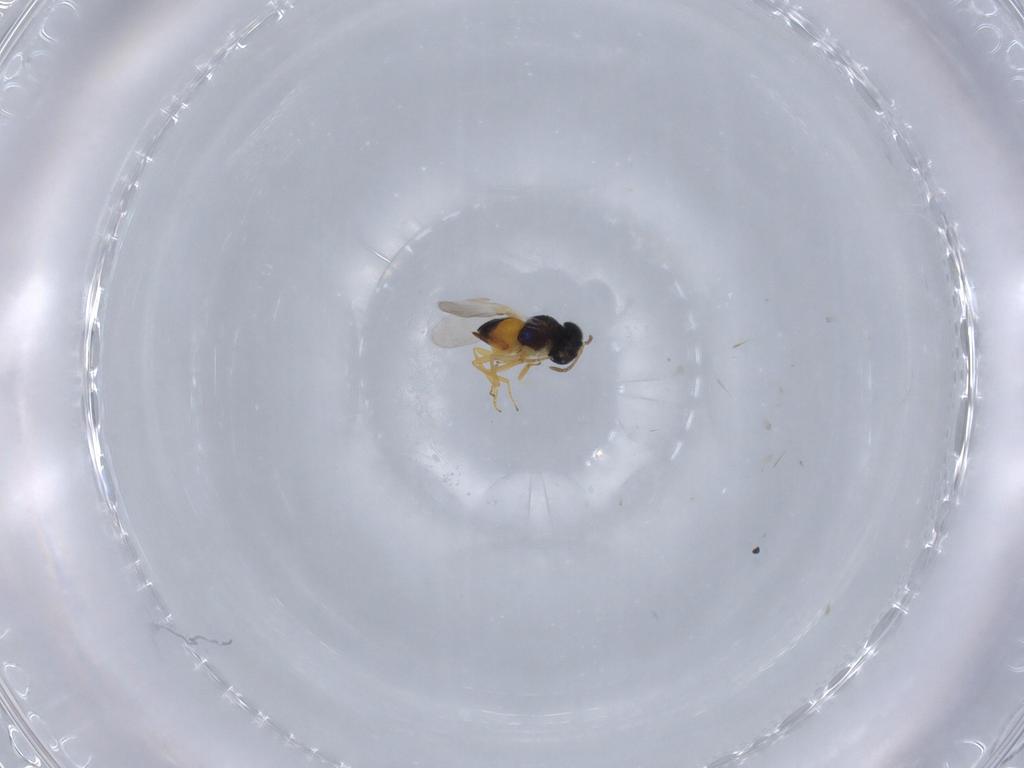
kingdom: Animalia
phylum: Arthropoda
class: Insecta
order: Hymenoptera
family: Encyrtidae
